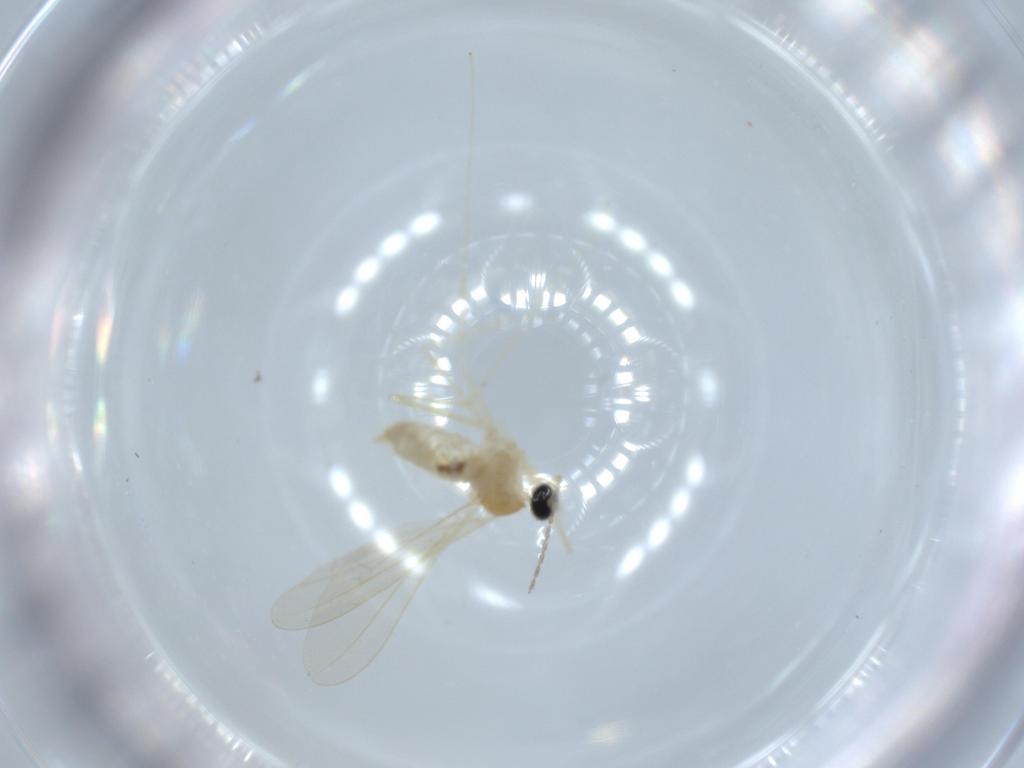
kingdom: Animalia
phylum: Arthropoda
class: Insecta
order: Diptera
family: Cecidomyiidae
